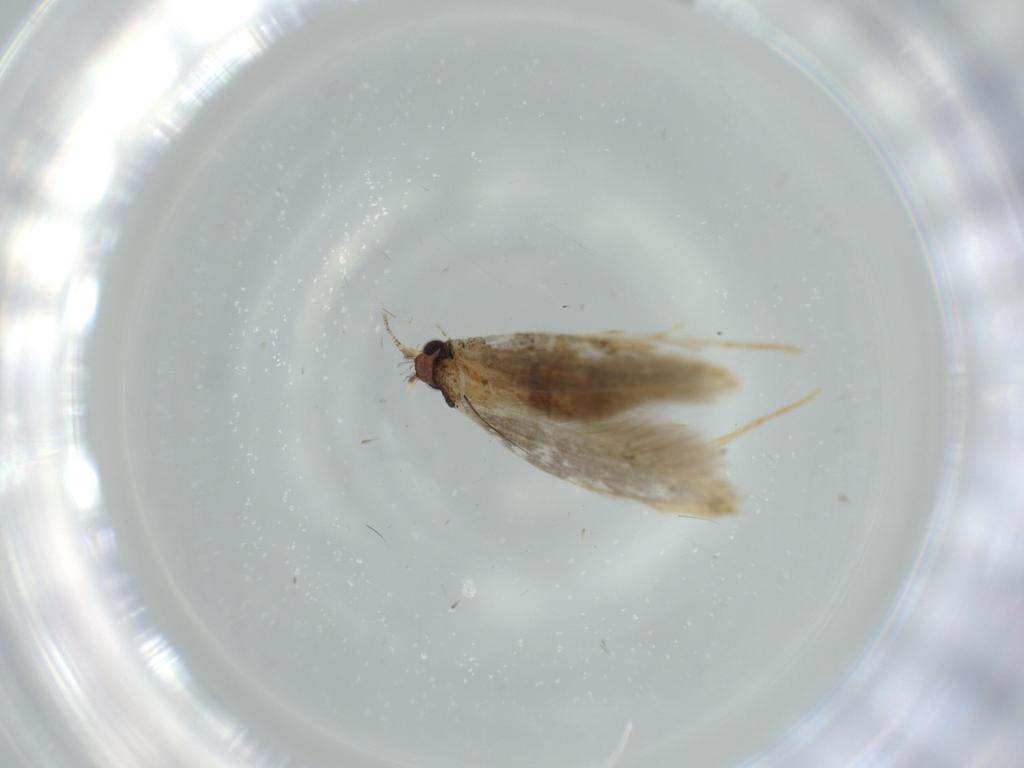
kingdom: Animalia
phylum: Arthropoda
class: Insecta
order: Lepidoptera
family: Tineidae
